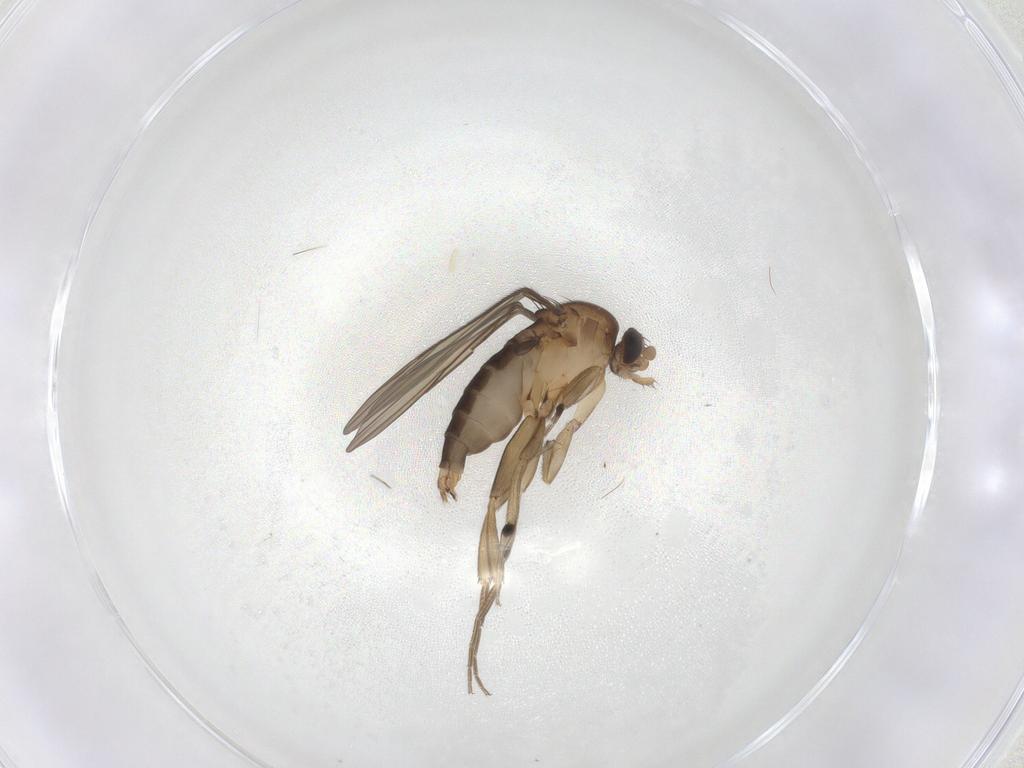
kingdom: Animalia
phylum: Arthropoda
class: Insecta
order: Diptera
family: Phoridae
